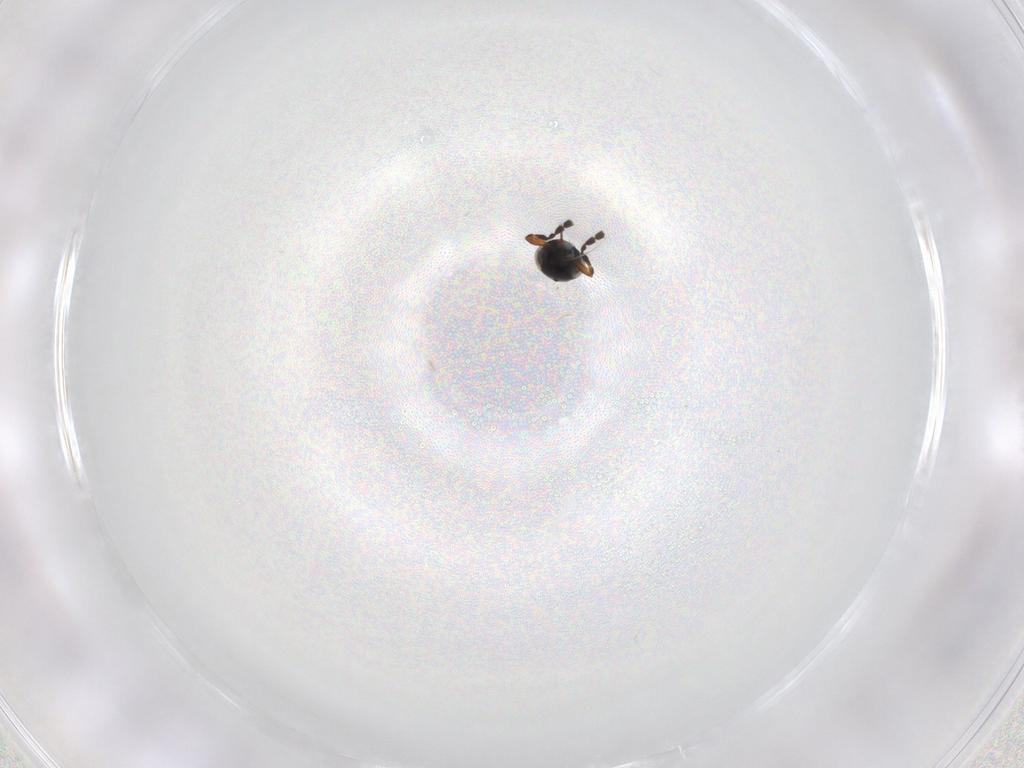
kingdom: Animalia
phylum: Arthropoda
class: Insecta
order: Hymenoptera
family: Platygastridae
